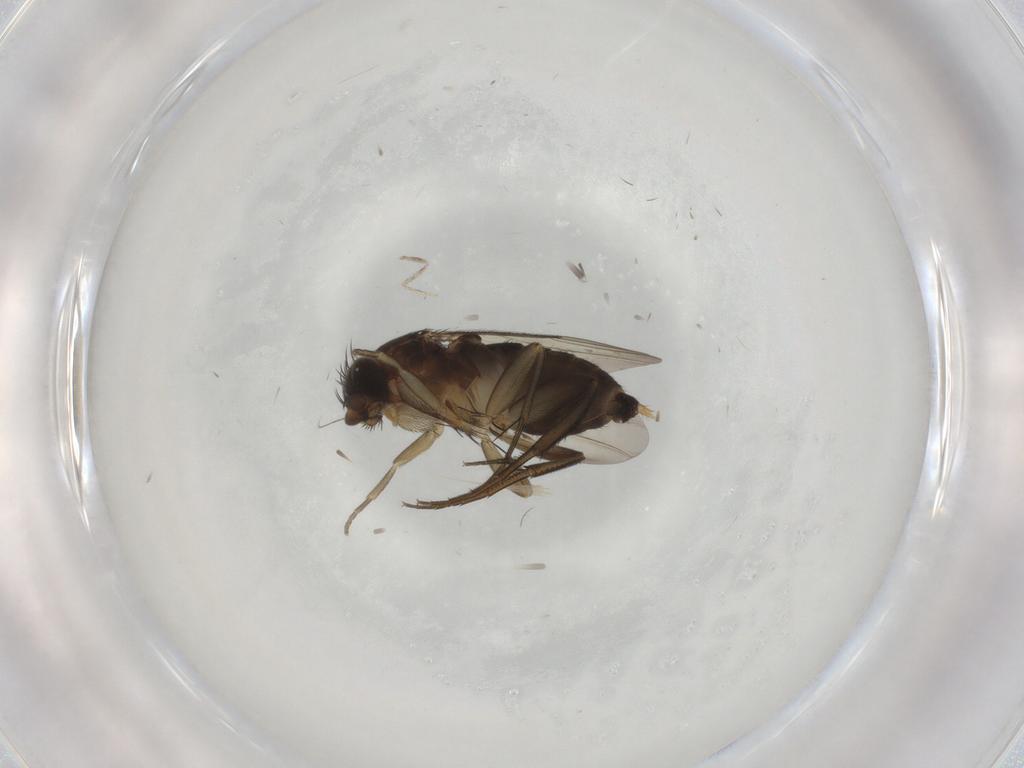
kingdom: Animalia
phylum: Arthropoda
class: Insecta
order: Diptera
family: Phoridae
